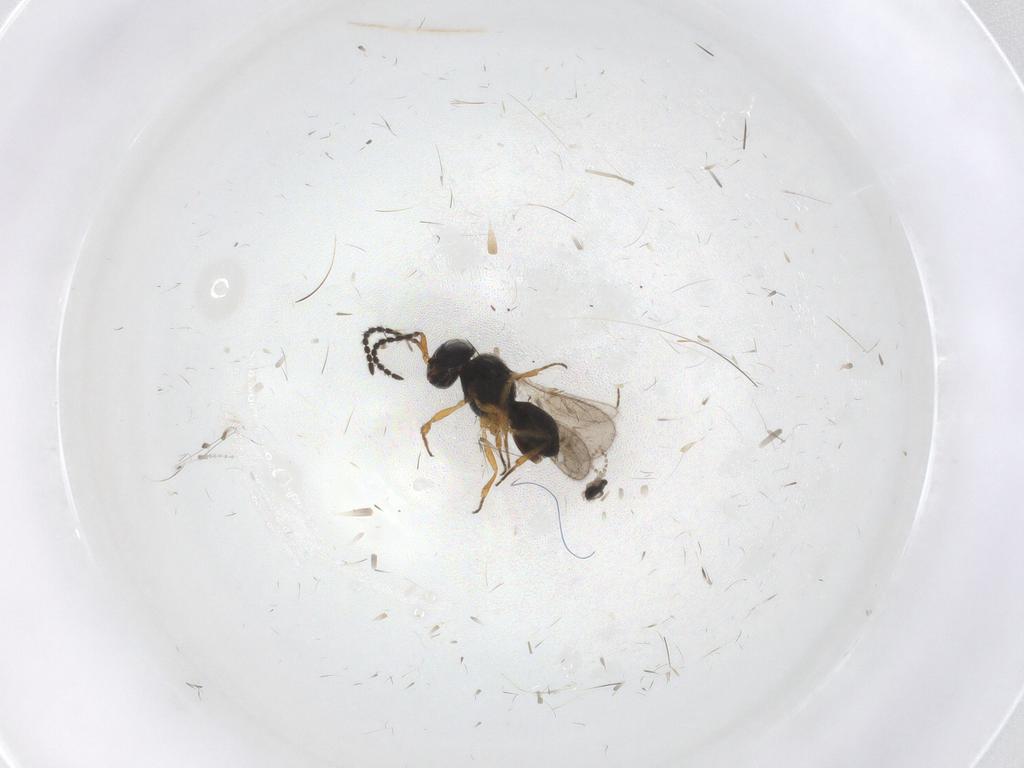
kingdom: Animalia
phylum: Arthropoda
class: Insecta
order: Diptera
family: Cecidomyiidae
